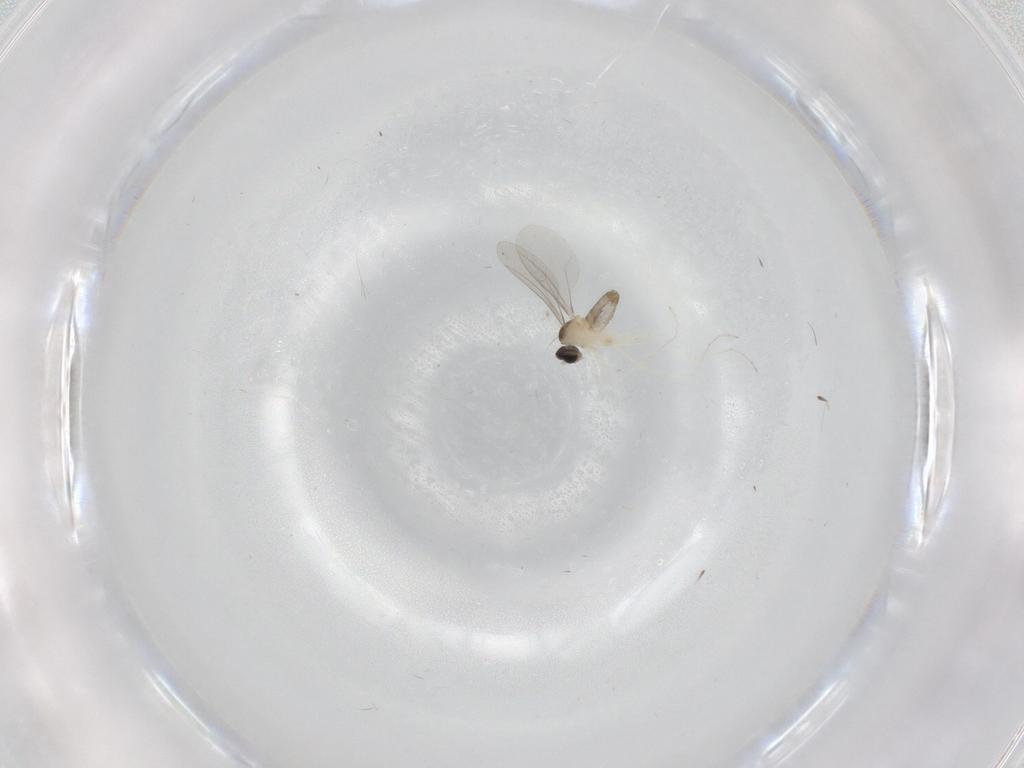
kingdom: Animalia
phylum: Arthropoda
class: Insecta
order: Diptera
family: Cecidomyiidae
